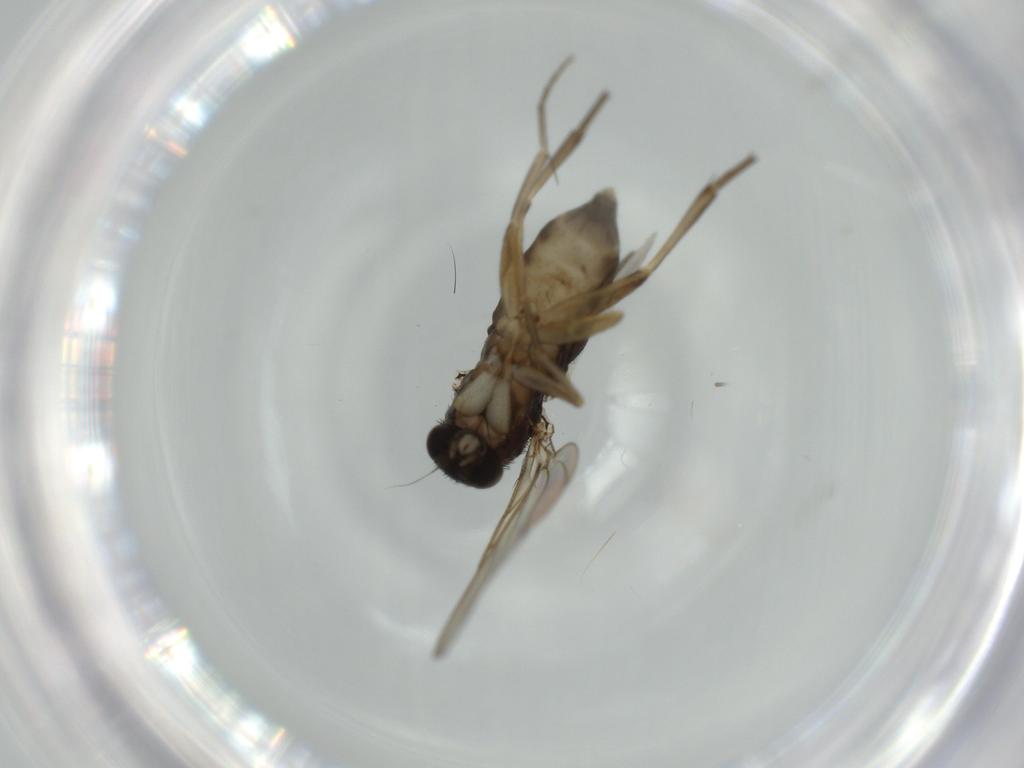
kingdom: Animalia
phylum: Arthropoda
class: Insecta
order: Diptera
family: Phoridae
